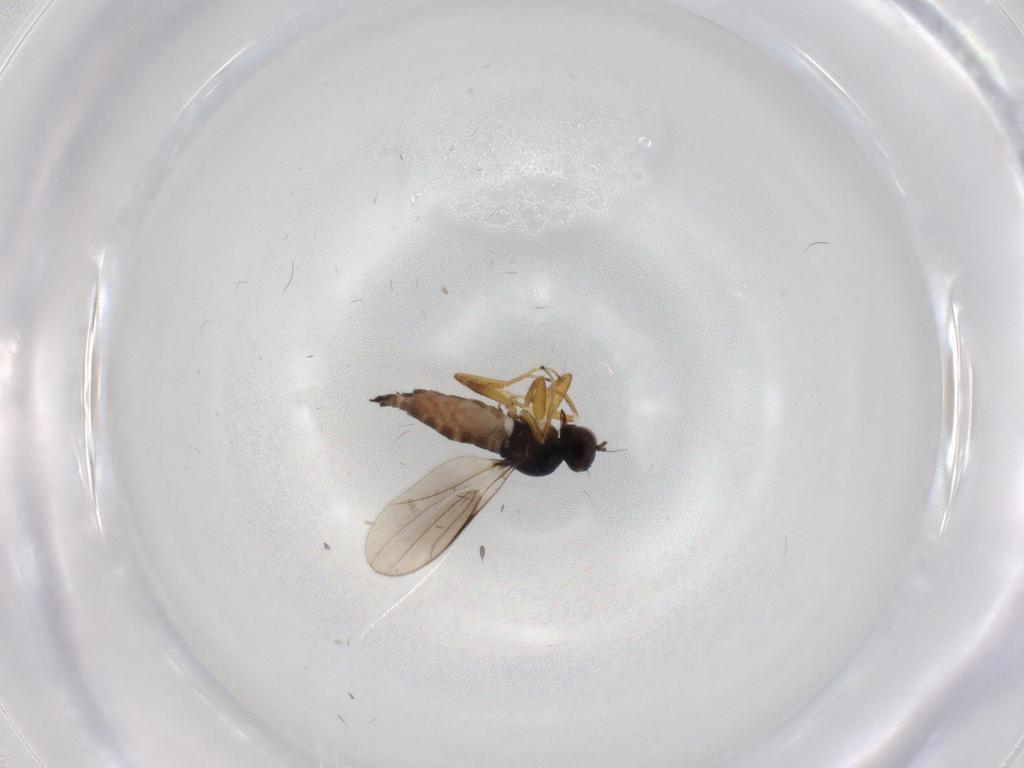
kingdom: Animalia
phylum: Arthropoda
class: Insecta
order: Diptera
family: Hybotidae
